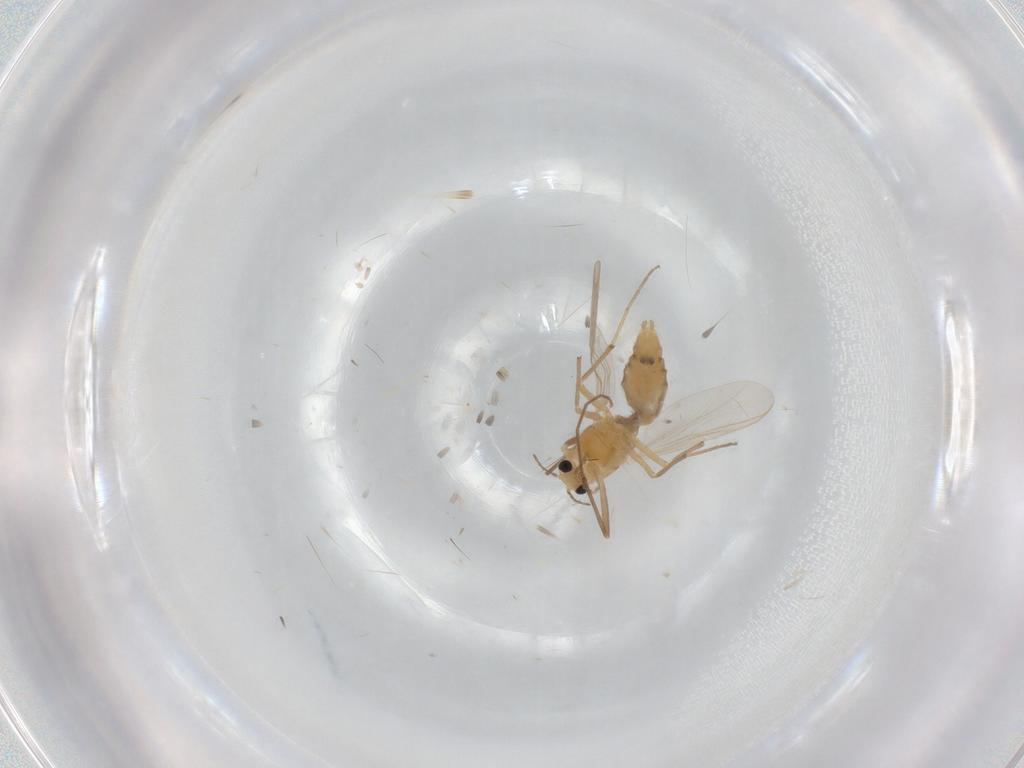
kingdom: Animalia
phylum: Arthropoda
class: Insecta
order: Diptera
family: Chironomidae
